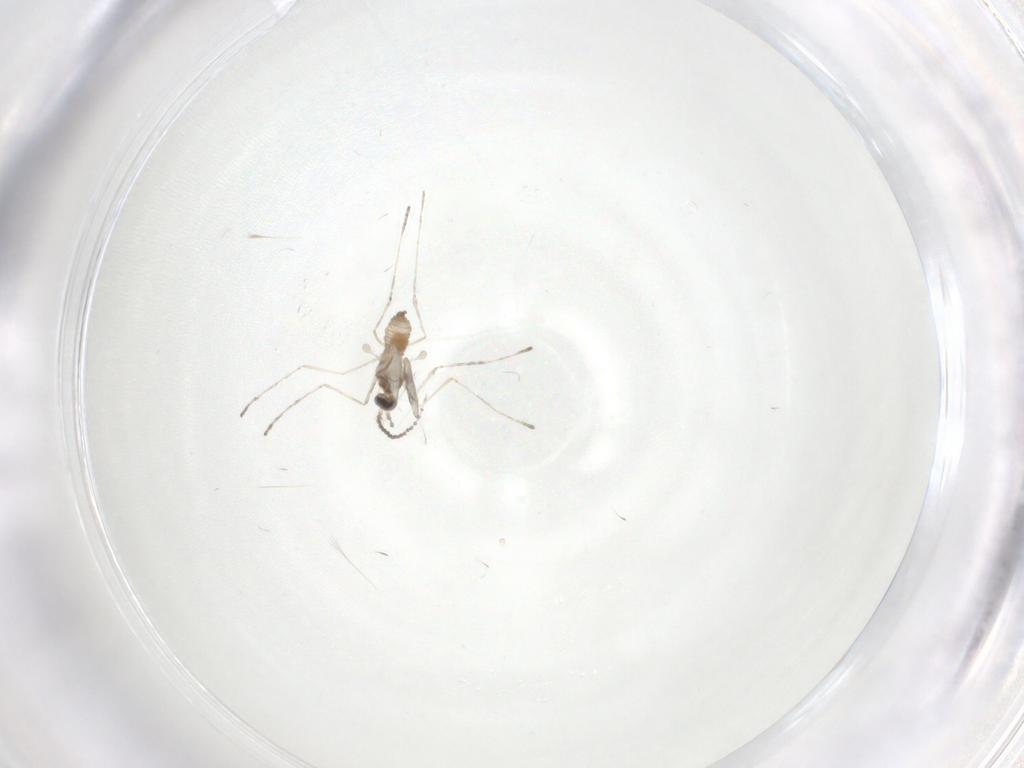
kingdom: Animalia
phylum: Arthropoda
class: Insecta
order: Diptera
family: Cecidomyiidae
